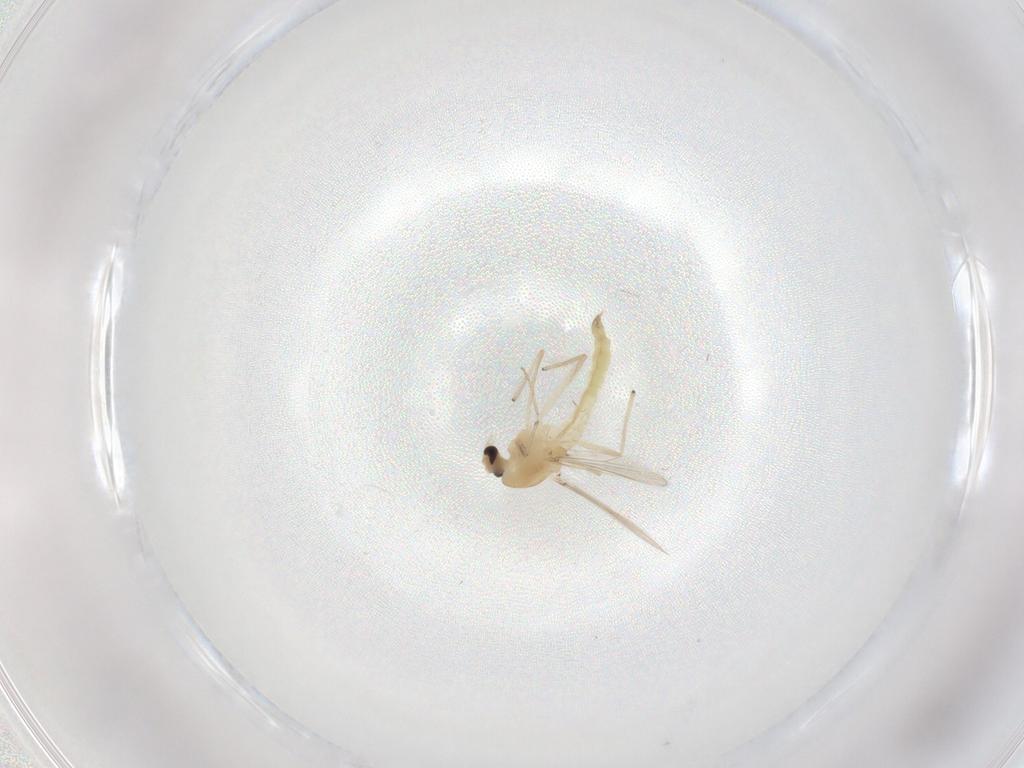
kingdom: Animalia
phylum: Arthropoda
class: Insecta
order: Diptera
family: Chironomidae
